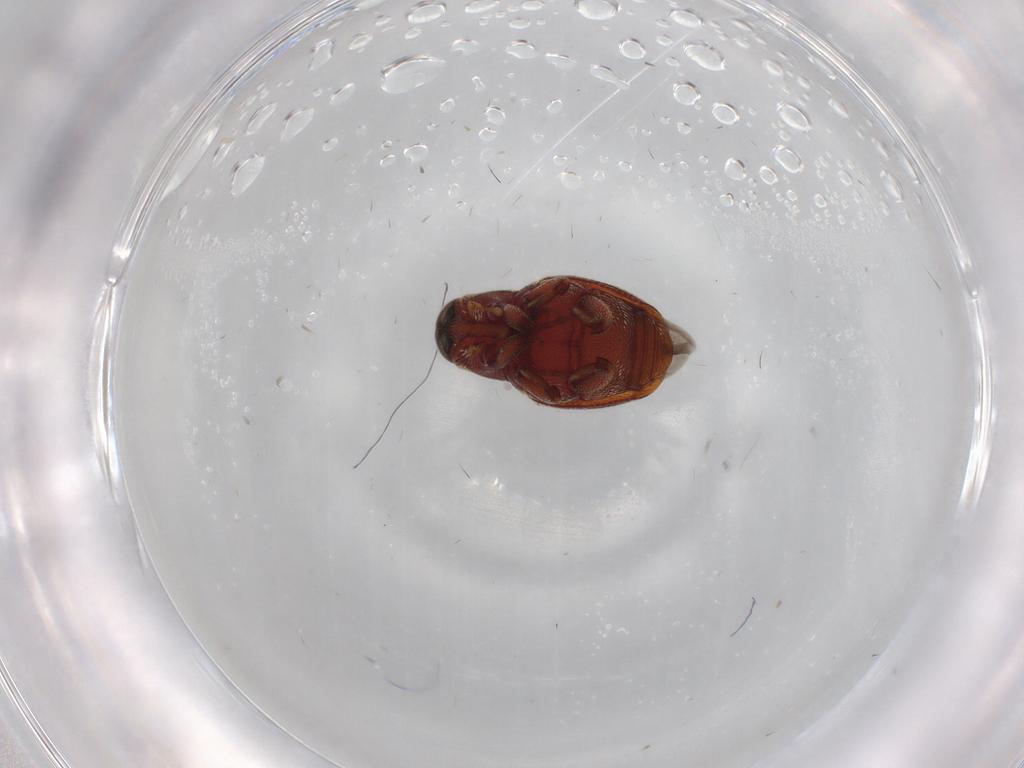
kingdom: Animalia
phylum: Arthropoda
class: Insecta
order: Coleoptera
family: Curculionidae
